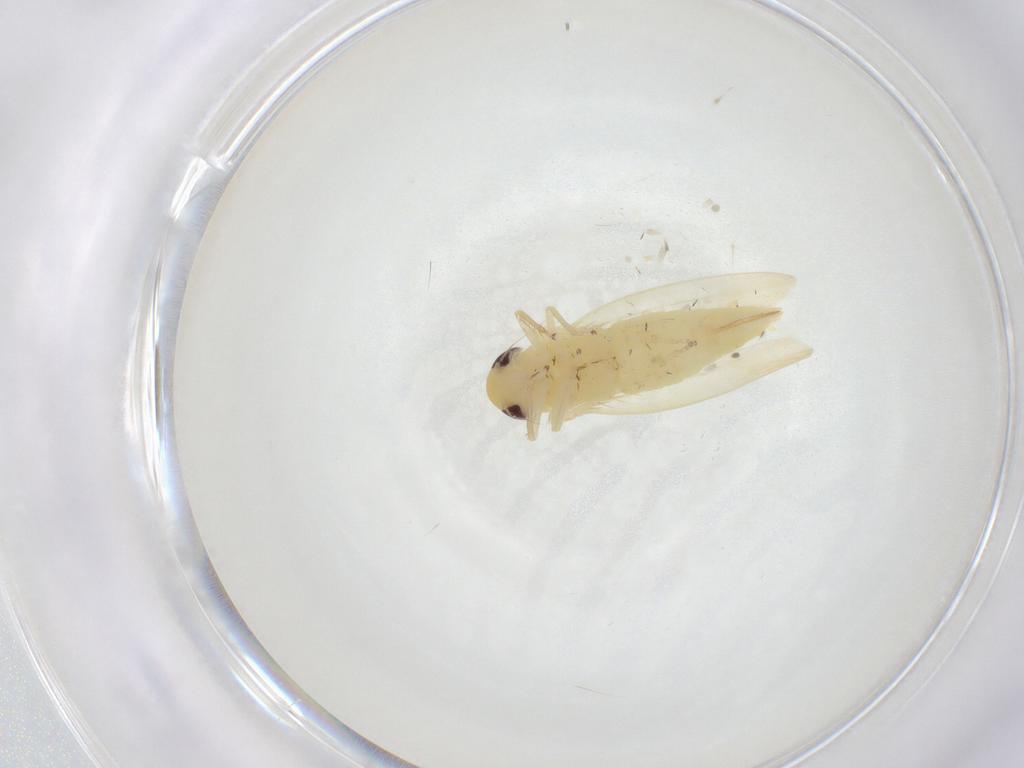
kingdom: Animalia
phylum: Arthropoda
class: Insecta
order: Hemiptera
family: Cicadellidae
